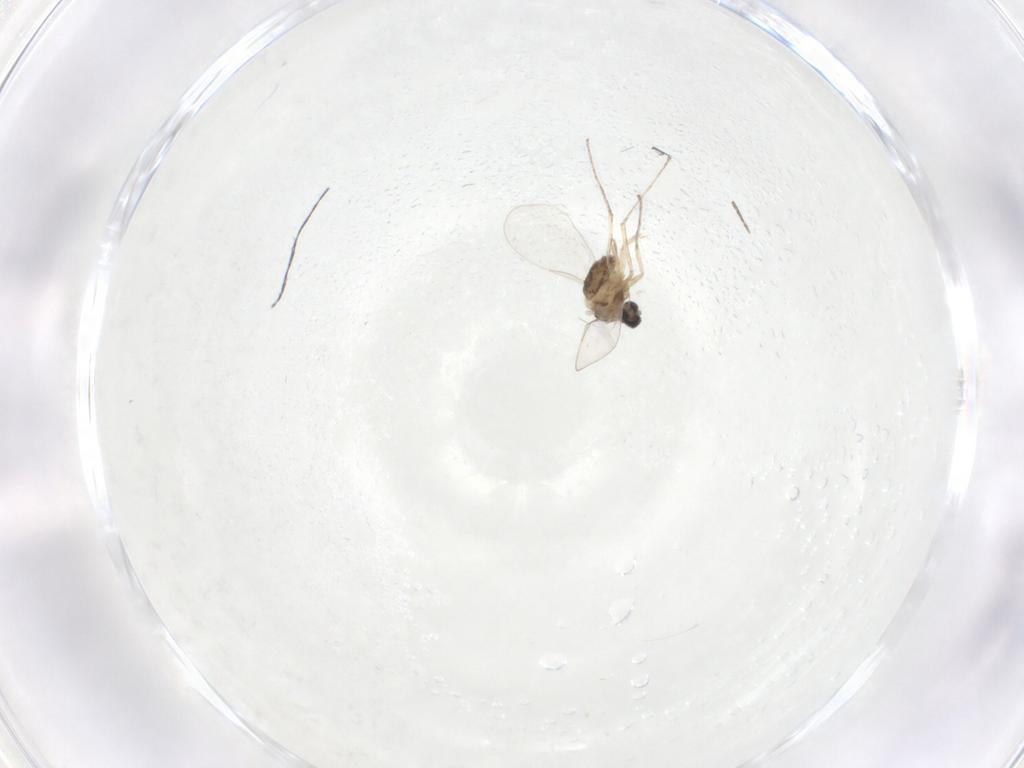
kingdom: Animalia
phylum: Arthropoda
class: Insecta
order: Diptera
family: Phoridae
